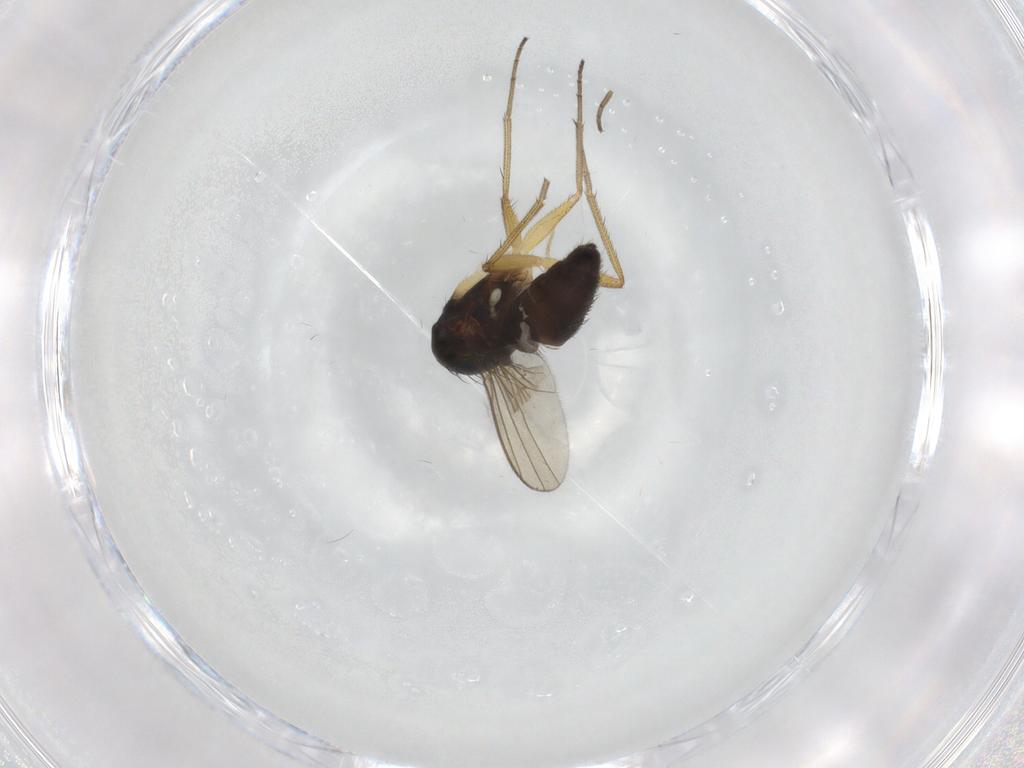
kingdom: Animalia
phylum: Arthropoda
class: Insecta
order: Diptera
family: Dolichopodidae
